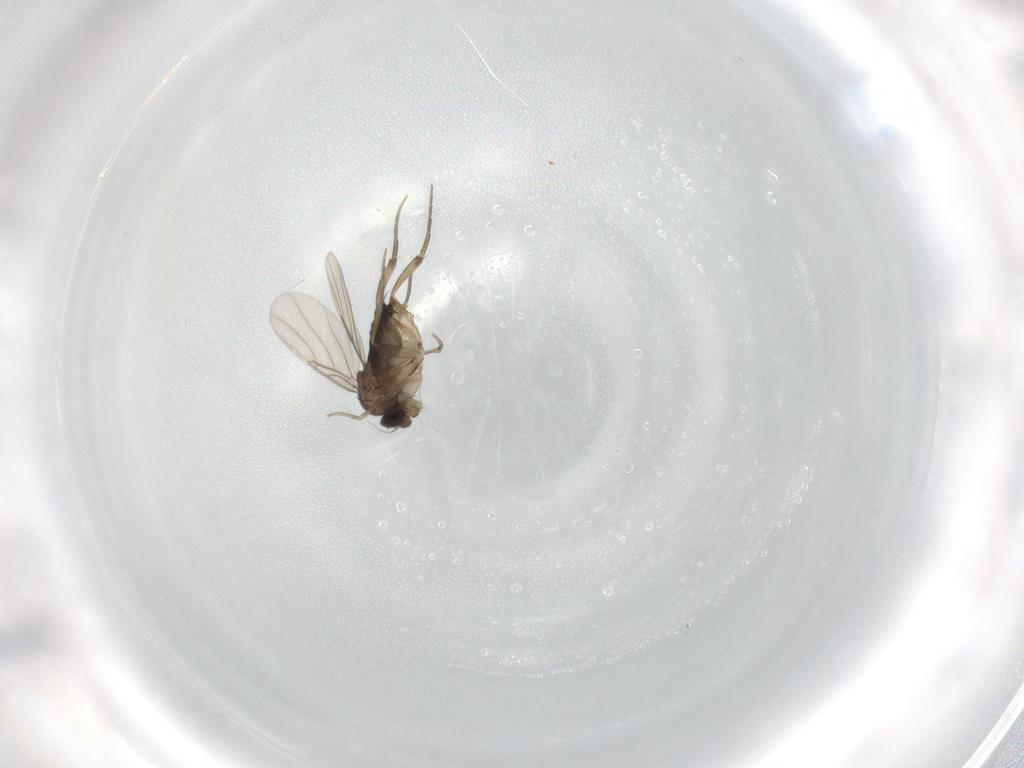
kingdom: Animalia
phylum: Arthropoda
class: Insecta
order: Diptera
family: Phoridae
